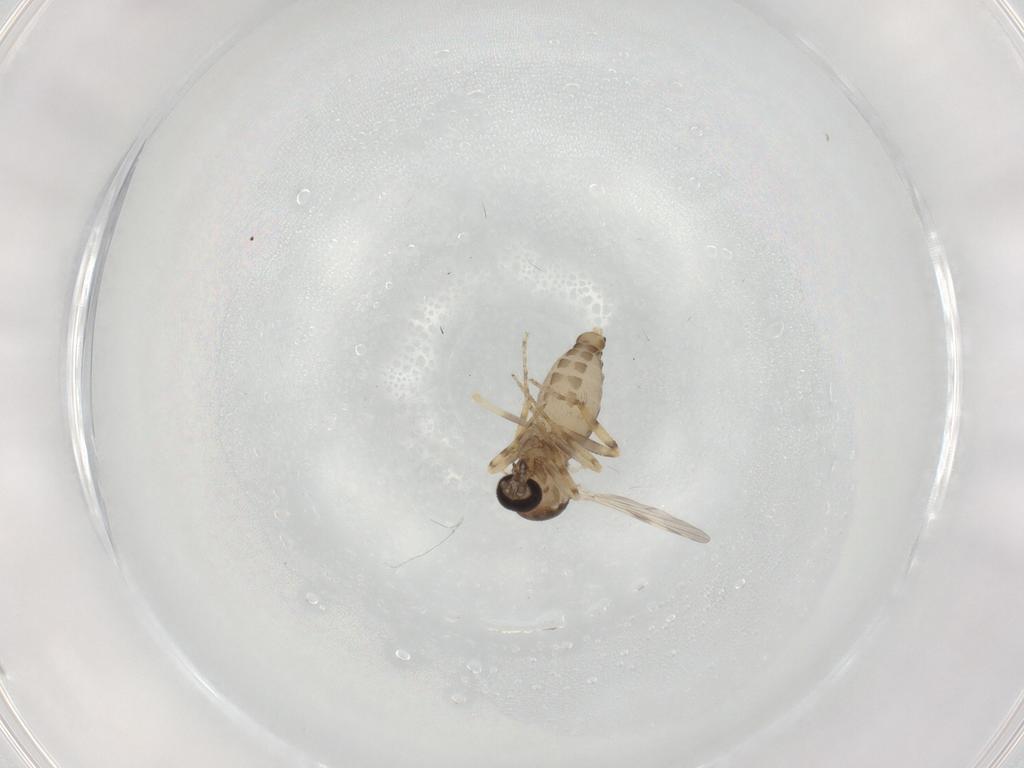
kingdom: Animalia
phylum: Arthropoda
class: Insecta
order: Diptera
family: Ceratopogonidae
